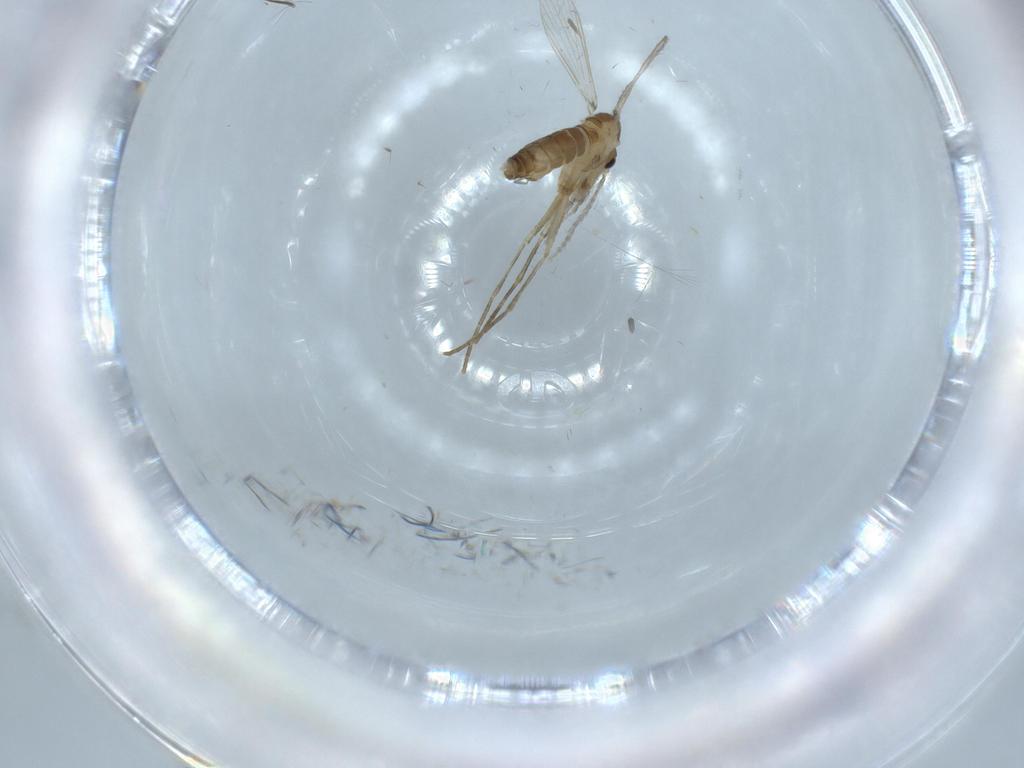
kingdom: Animalia
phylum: Arthropoda
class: Insecta
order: Diptera
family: Psychodidae
